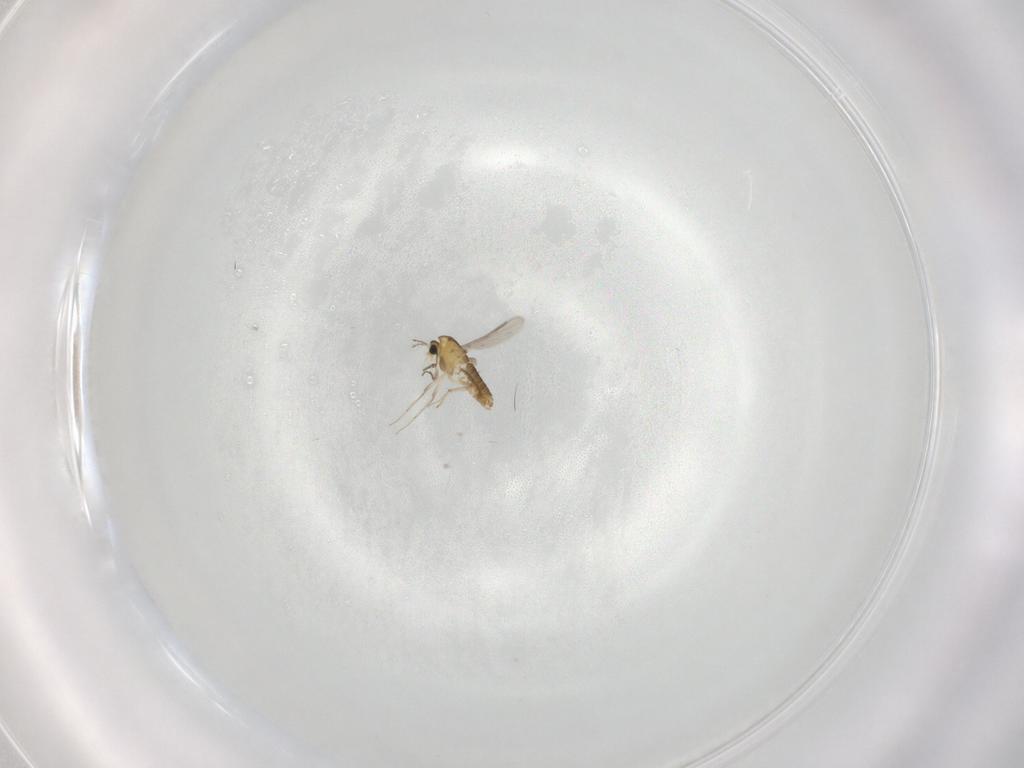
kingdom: Animalia
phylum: Arthropoda
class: Insecta
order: Diptera
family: Chironomidae
